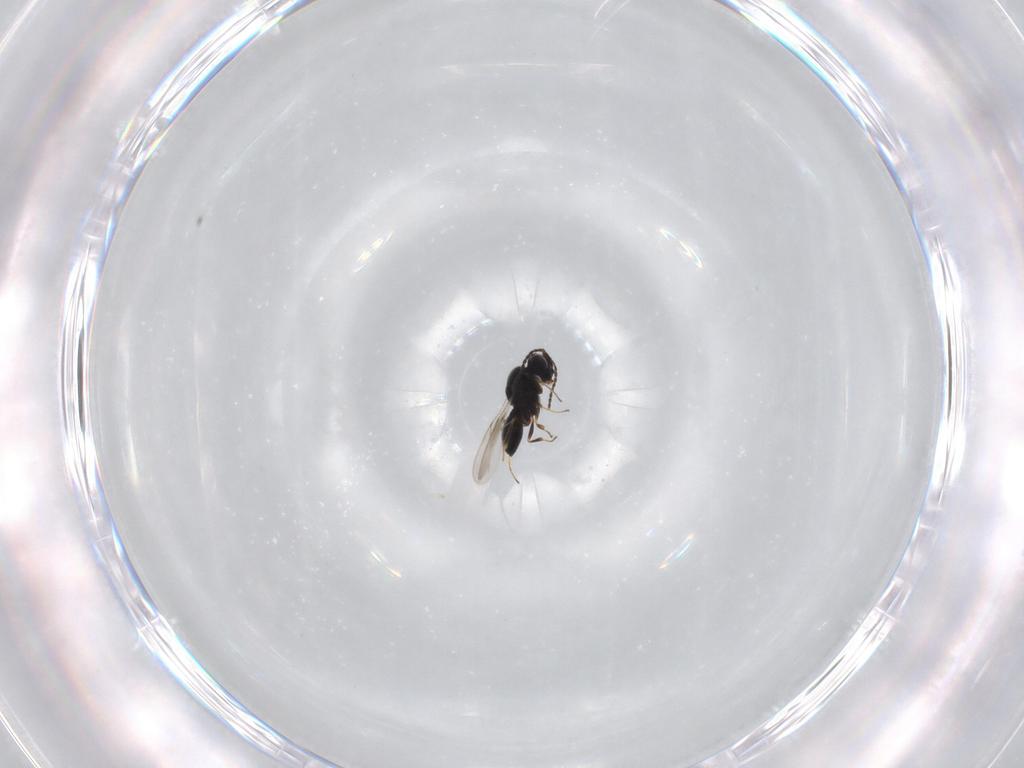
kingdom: Animalia
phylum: Arthropoda
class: Insecta
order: Hymenoptera
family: Scelionidae
